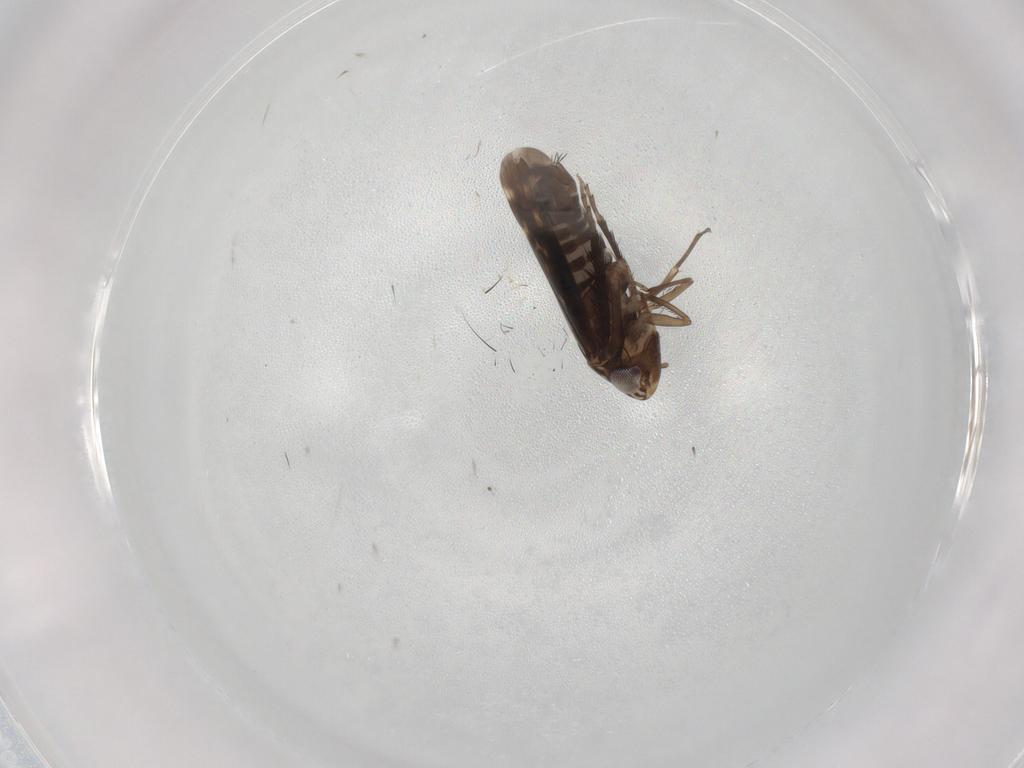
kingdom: Animalia
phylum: Arthropoda
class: Insecta
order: Hemiptera
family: Cicadellidae
